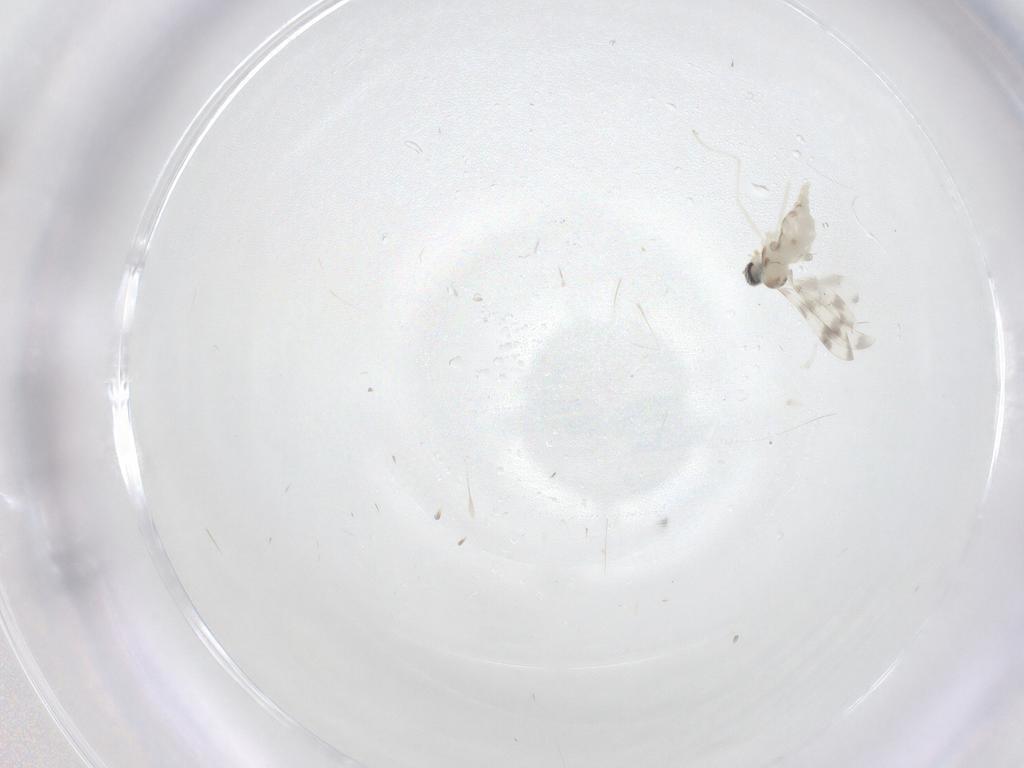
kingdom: Animalia
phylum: Arthropoda
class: Insecta
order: Diptera
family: Cecidomyiidae
